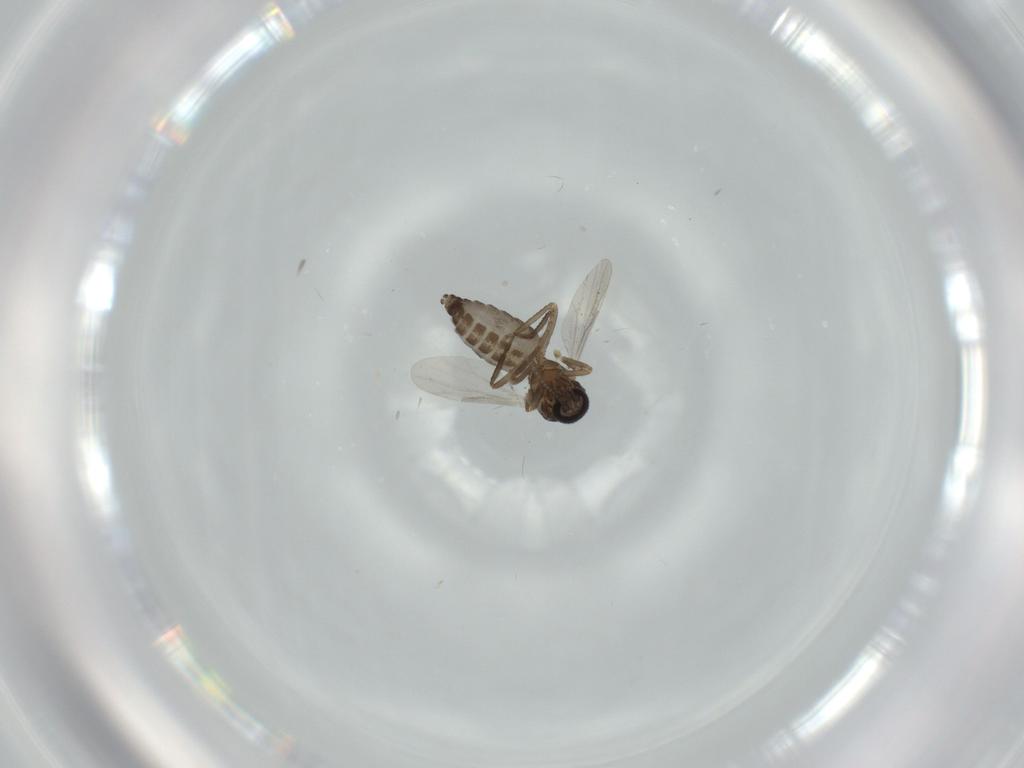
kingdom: Animalia
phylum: Arthropoda
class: Insecta
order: Diptera
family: Ceratopogonidae
